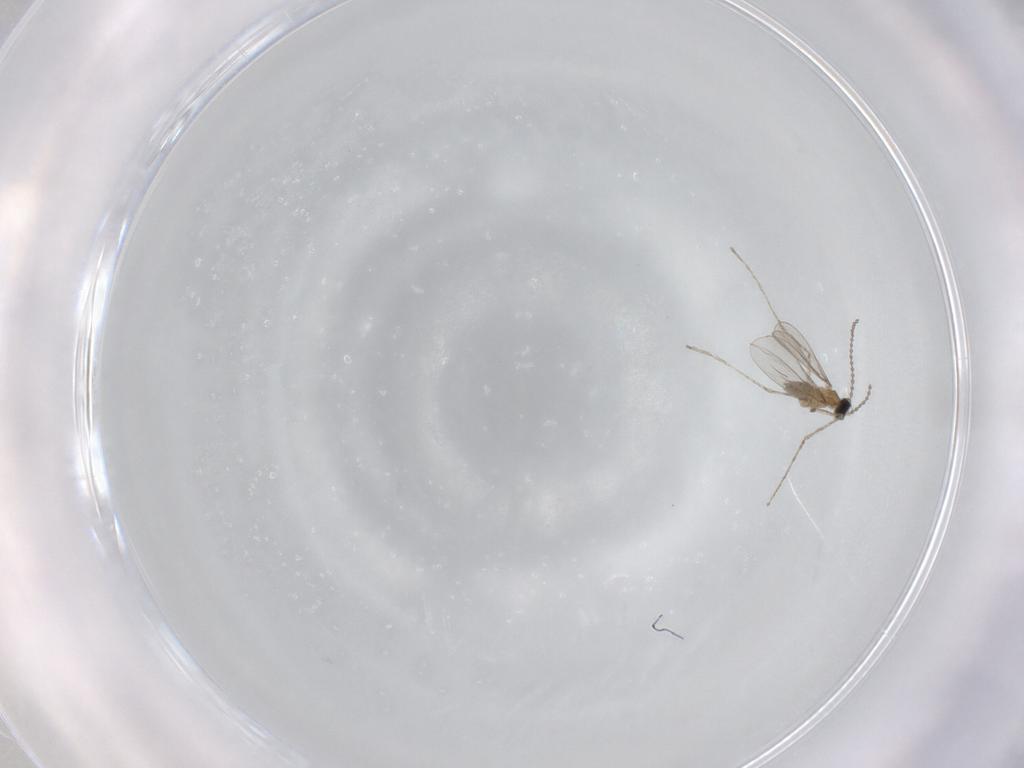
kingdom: Animalia
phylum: Arthropoda
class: Insecta
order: Diptera
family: Cecidomyiidae
